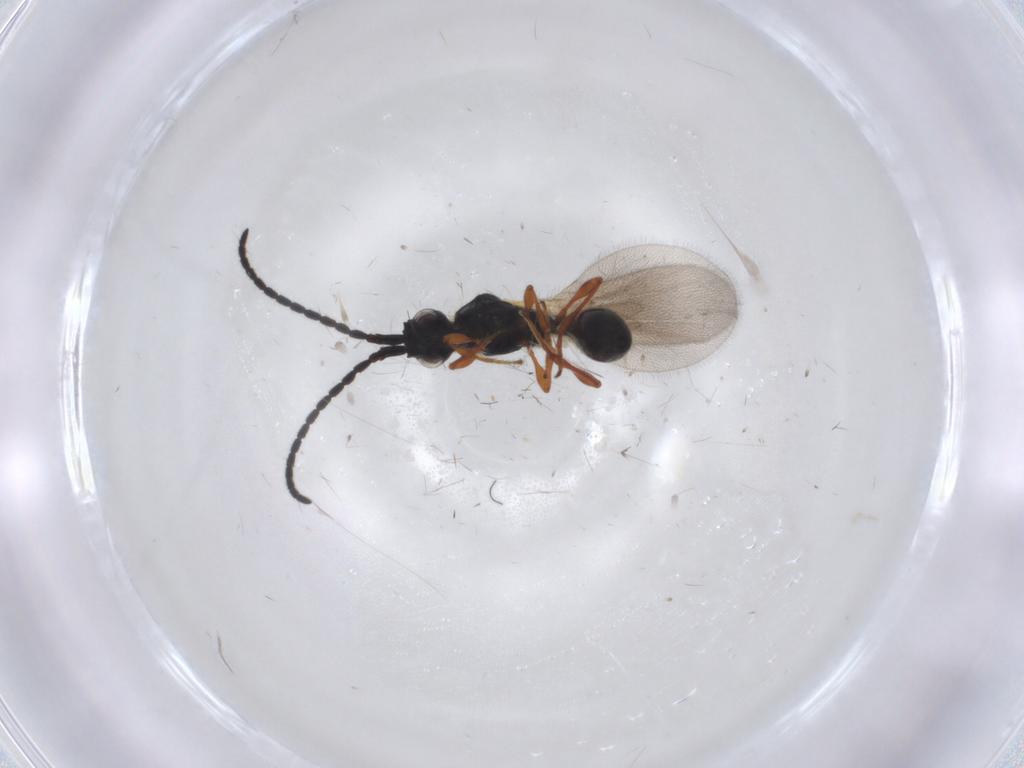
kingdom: Animalia
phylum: Arthropoda
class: Insecta
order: Hymenoptera
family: Diapriidae
